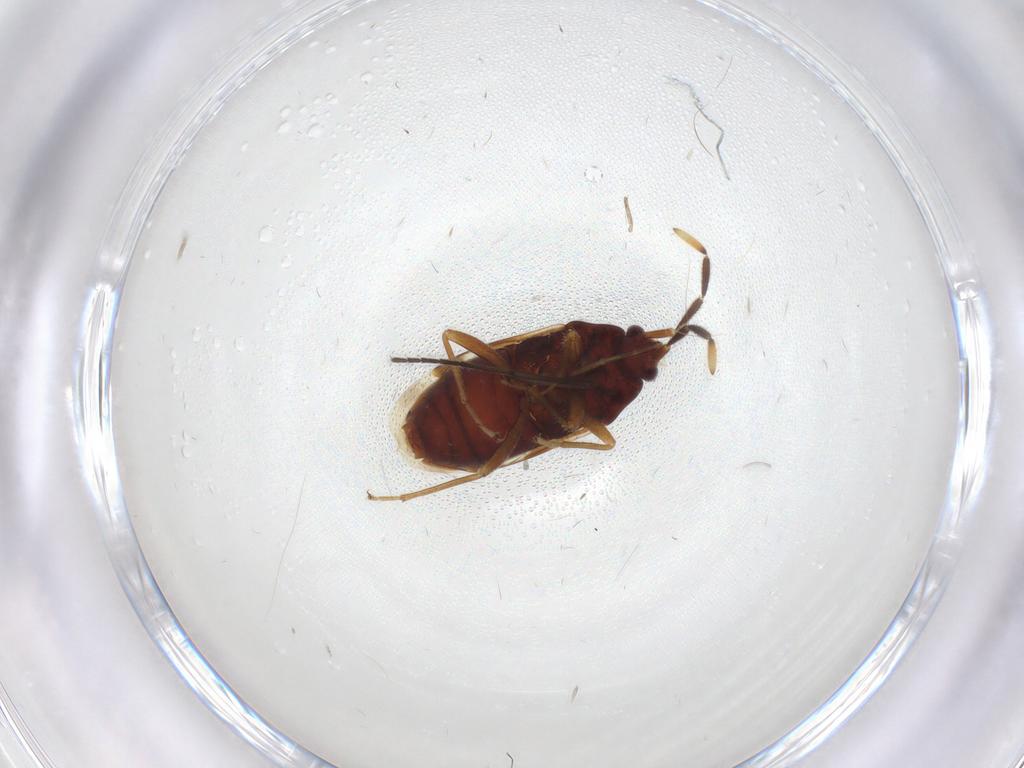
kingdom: Animalia
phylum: Arthropoda
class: Insecta
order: Hemiptera
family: Rhyparochromidae
